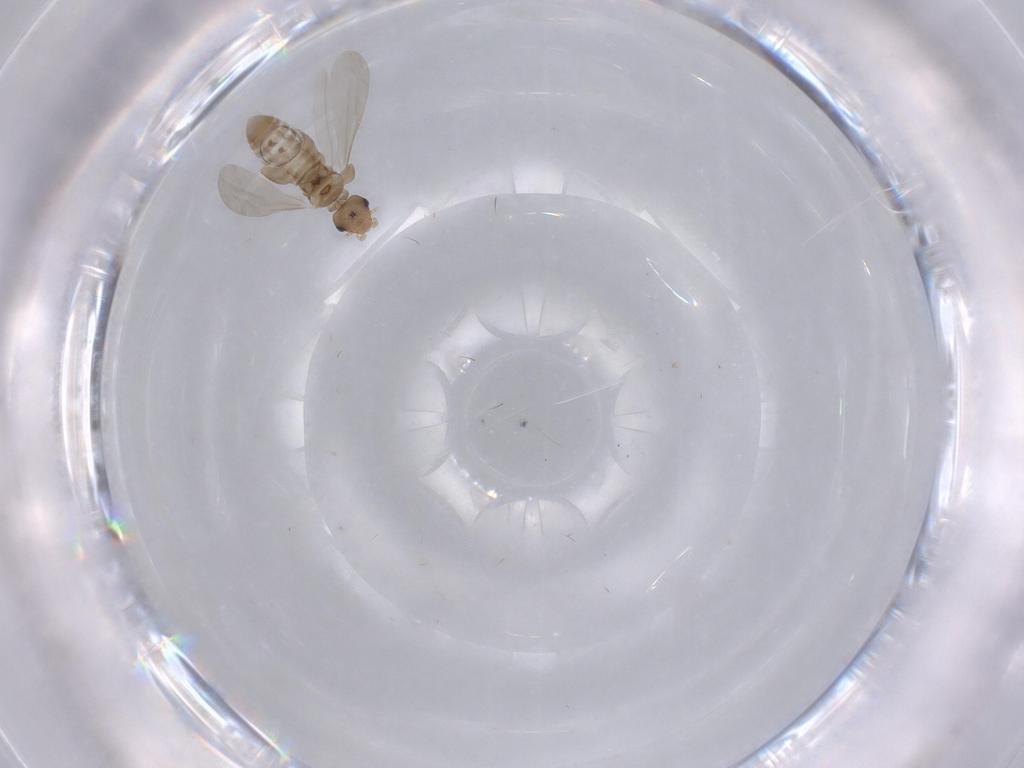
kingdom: Animalia
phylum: Arthropoda
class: Insecta
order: Psocodea
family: Liposcelididae
